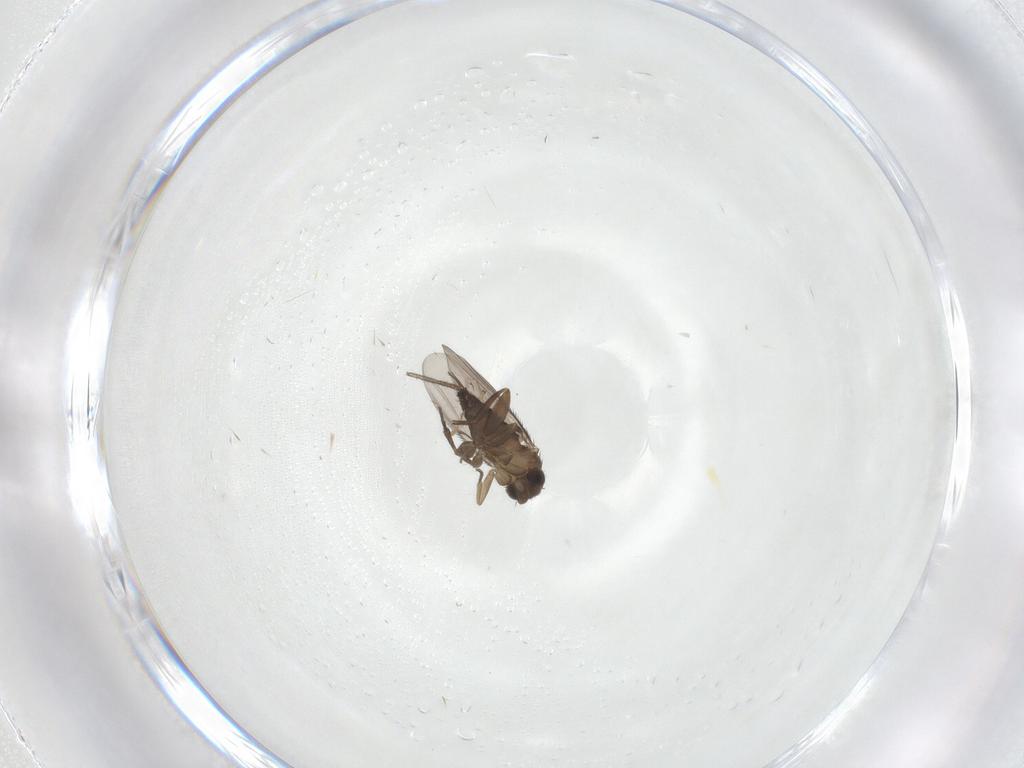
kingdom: Animalia
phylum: Arthropoda
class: Insecta
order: Diptera
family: Phoridae
